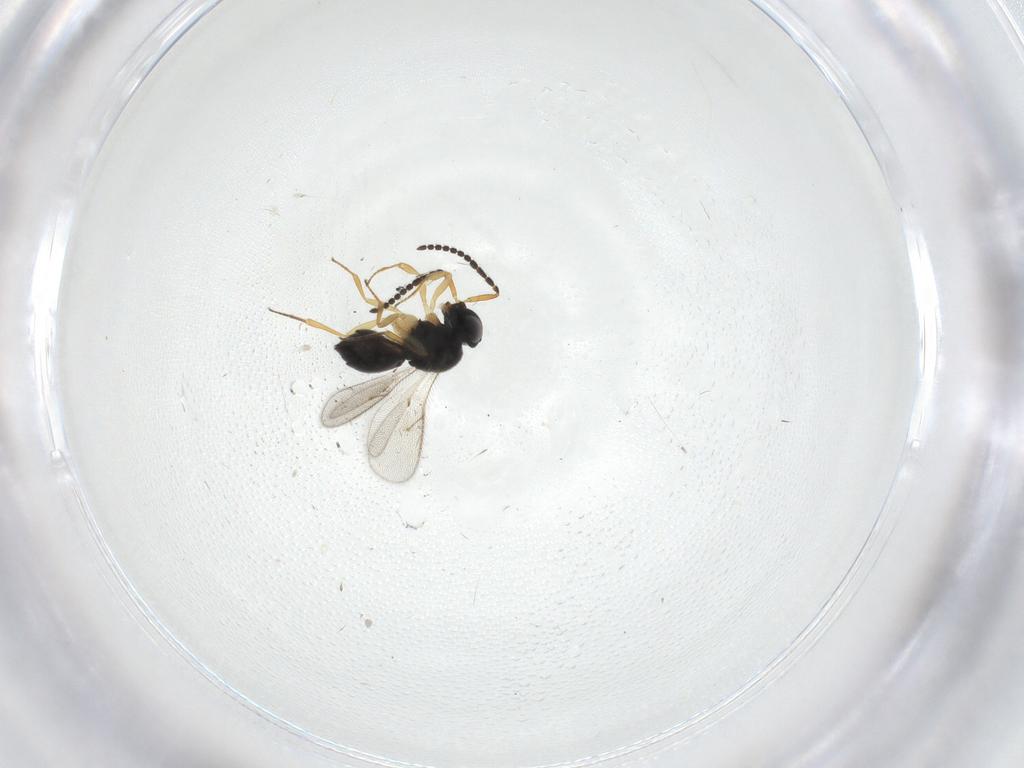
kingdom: Animalia
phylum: Arthropoda
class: Insecta
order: Hymenoptera
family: Scelionidae
